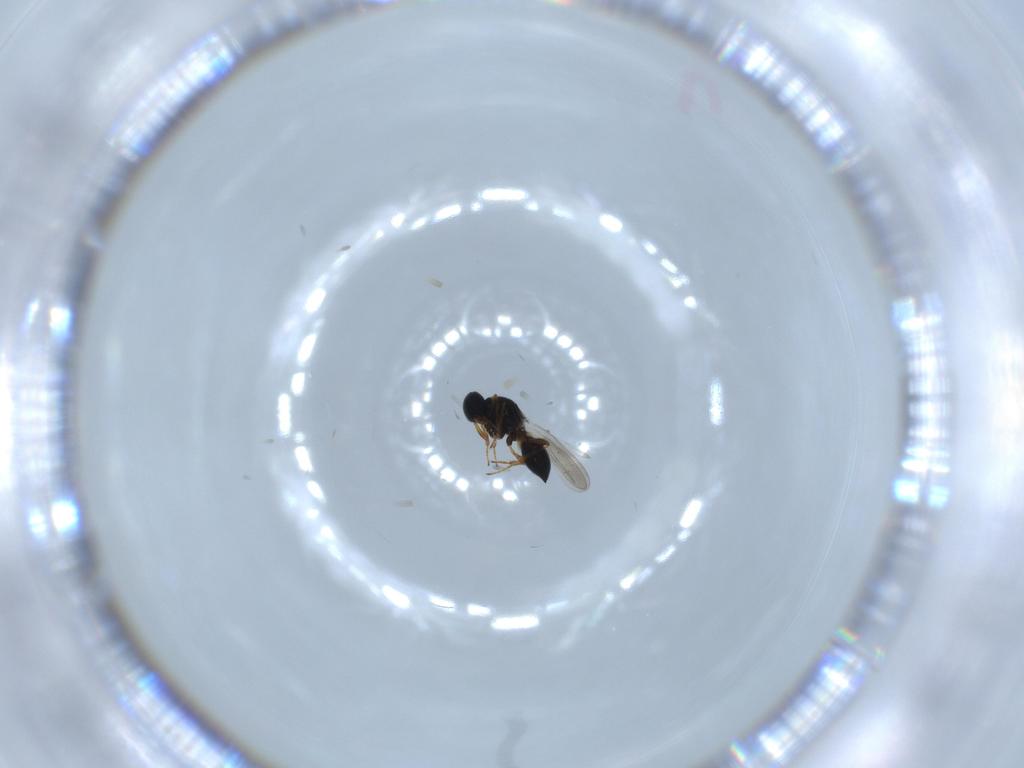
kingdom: Animalia
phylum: Arthropoda
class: Insecta
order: Hymenoptera
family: Platygastridae
